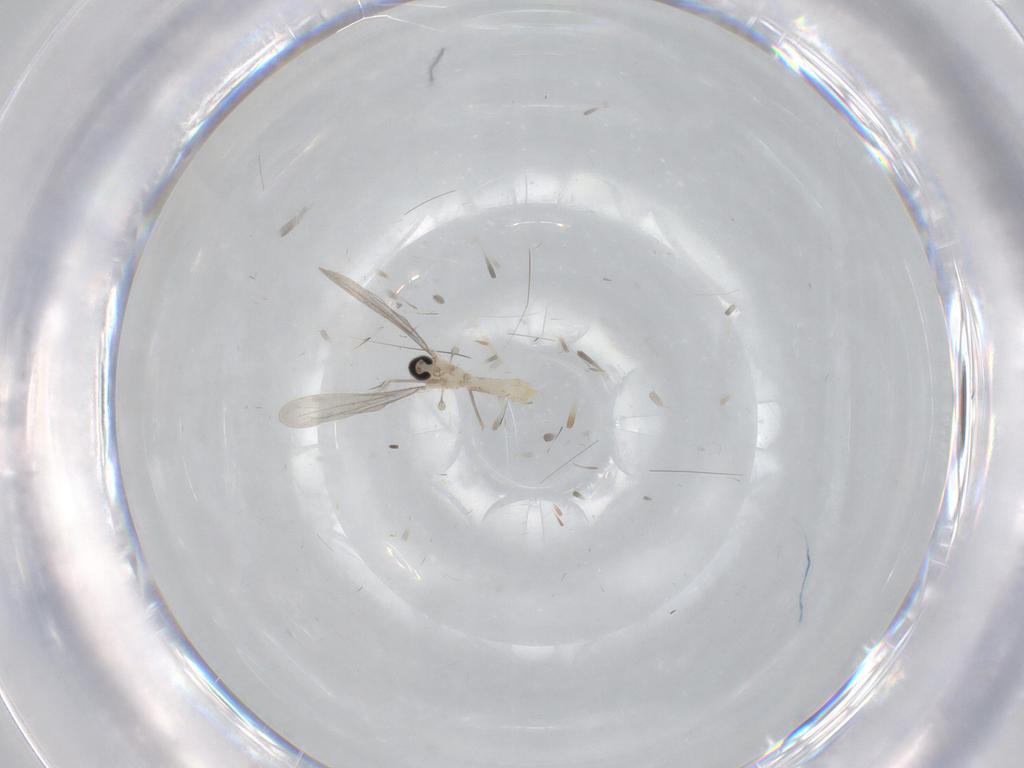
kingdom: Animalia
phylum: Arthropoda
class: Insecta
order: Diptera
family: Cecidomyiidae
